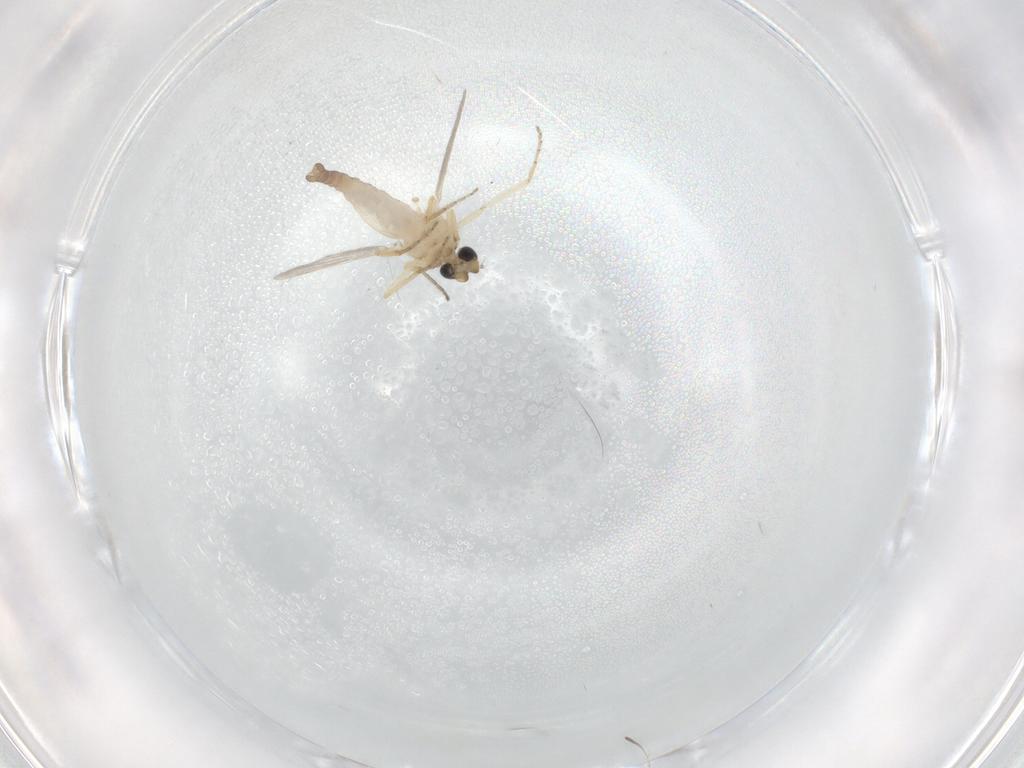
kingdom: Animalia
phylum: Arthropoda
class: Insecta
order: Diptera
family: Ceratopogonidae
